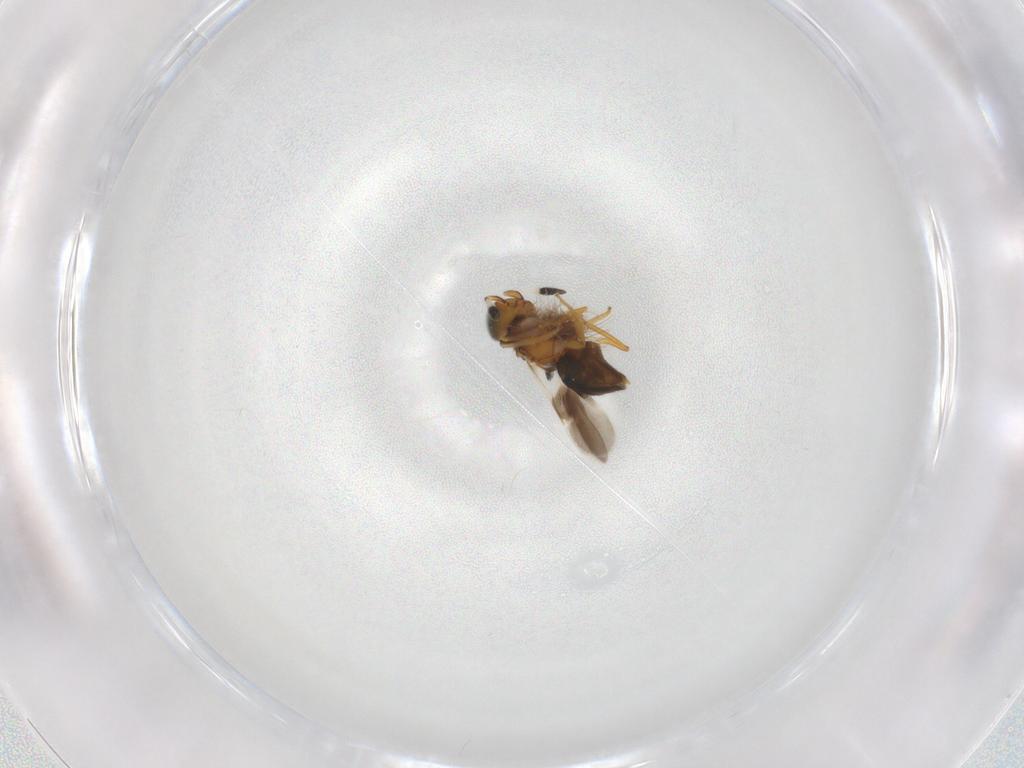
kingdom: Animalia
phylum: Arthropoda
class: Insecta
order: Hymenoptera
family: Encyrtidae
